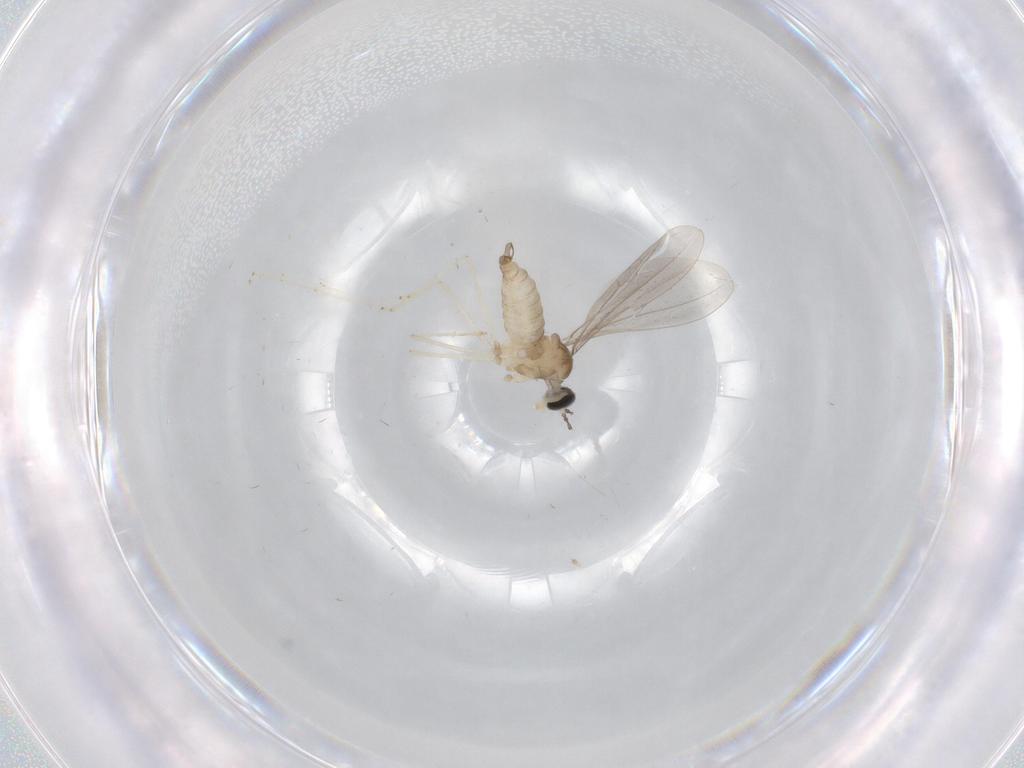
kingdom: Animalia
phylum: Arthropoda
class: Insecta
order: Diptera
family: Cecidomyiidae
